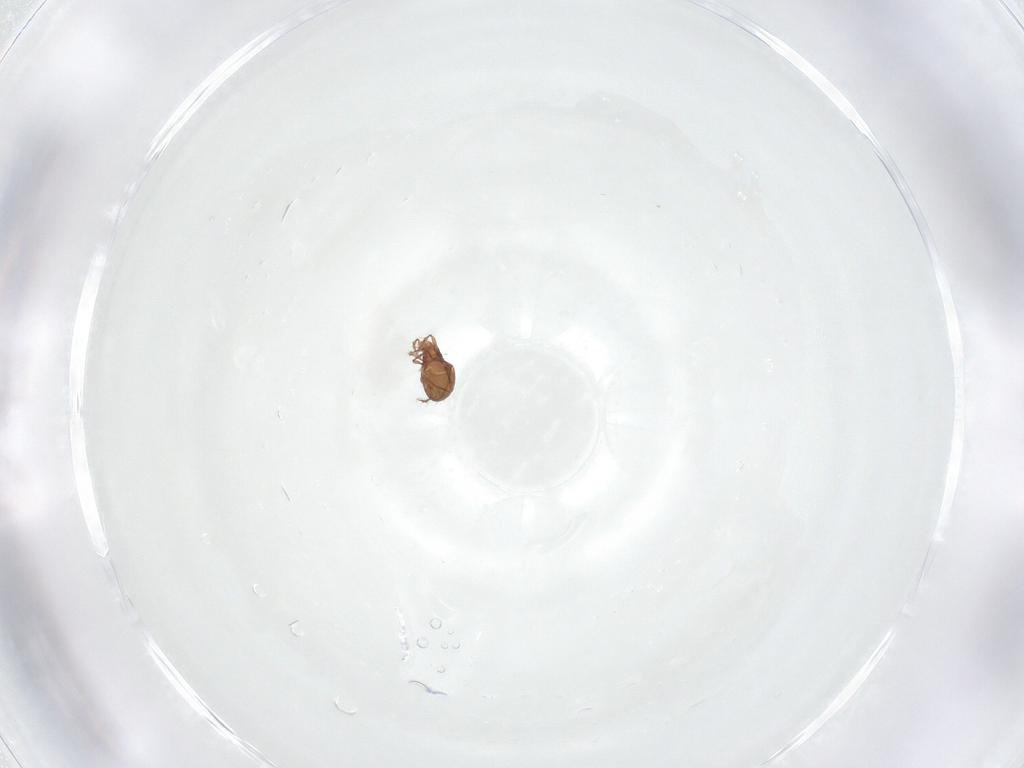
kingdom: Animalia
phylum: Arthropoda
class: Arachnida
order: Sarcoptiformes
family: Oppiidae
